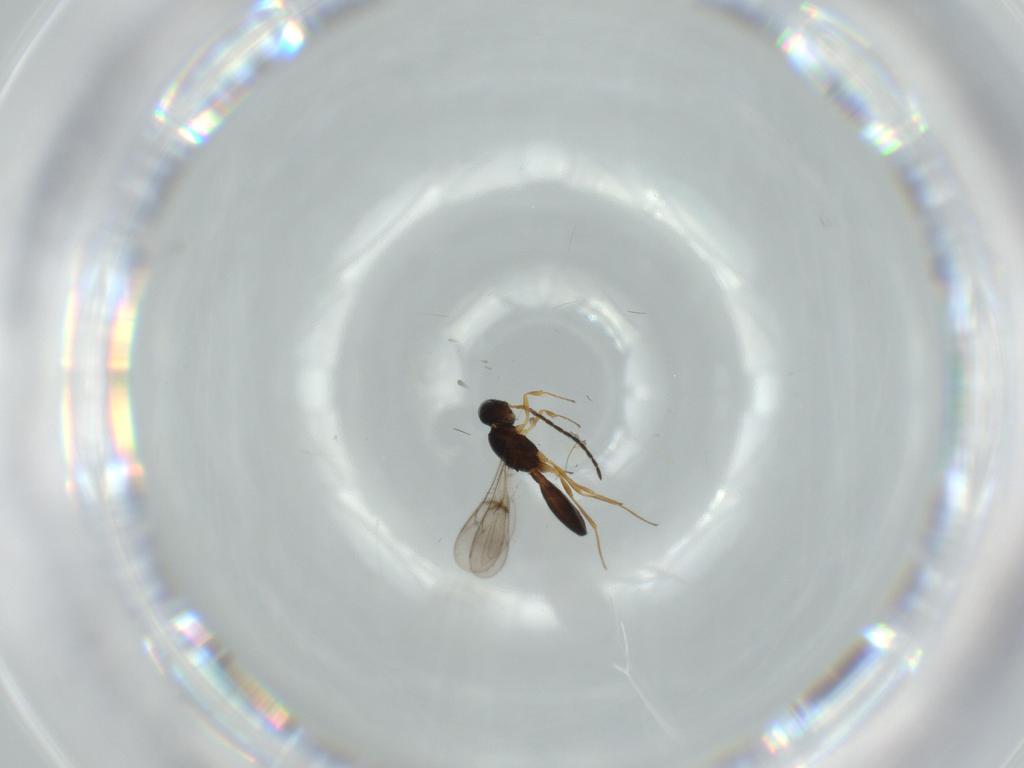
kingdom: Animalia
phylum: Arthropoda
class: Insecta
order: Hymenoptera
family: Scelionidae
